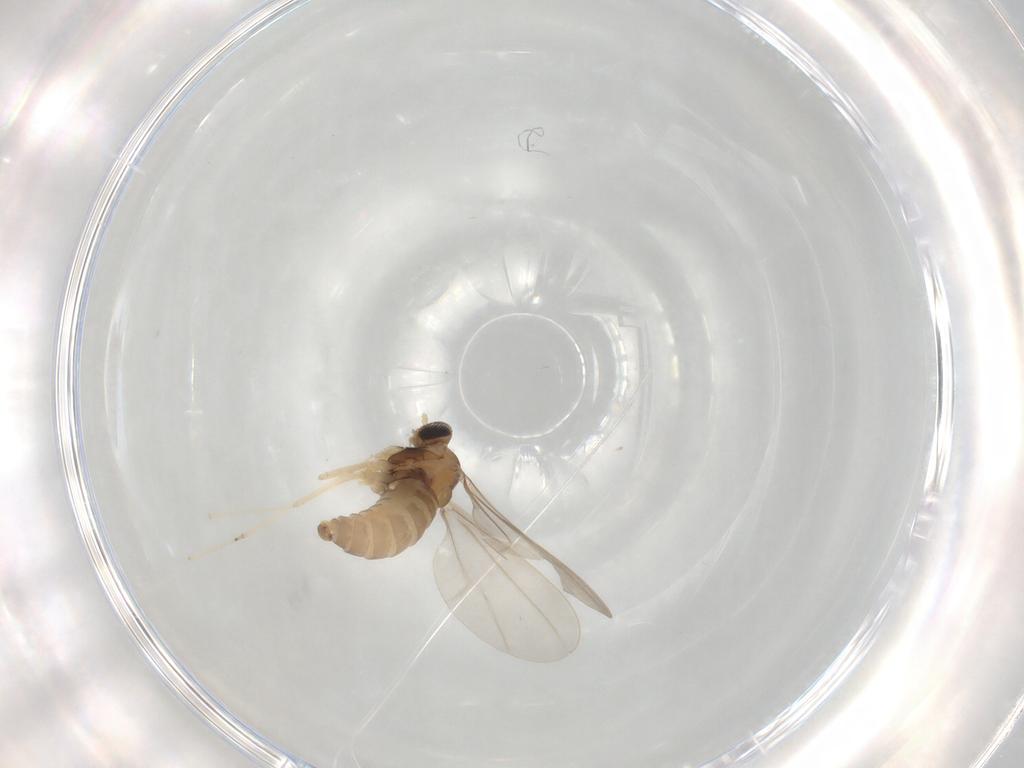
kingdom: Animalia
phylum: Arthropoda
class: Insecta
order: Diptera
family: Cecidomyiidae
